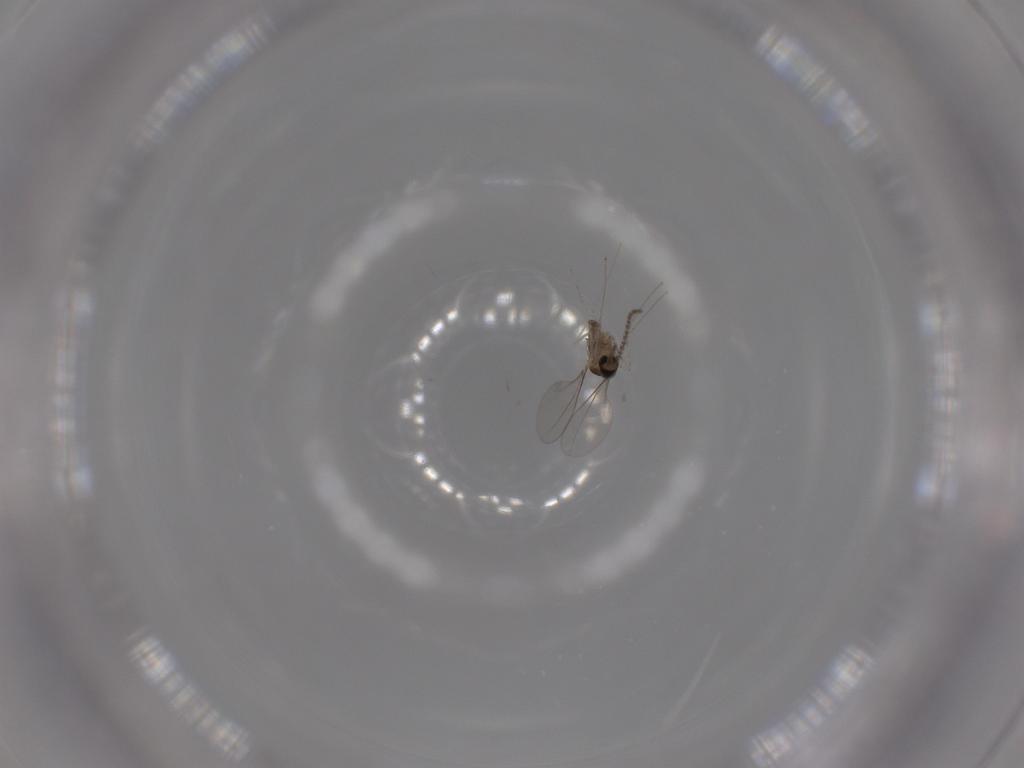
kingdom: Animalia
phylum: Arthropoda
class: Insecta
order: Diptera
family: Cecidomyiidae
